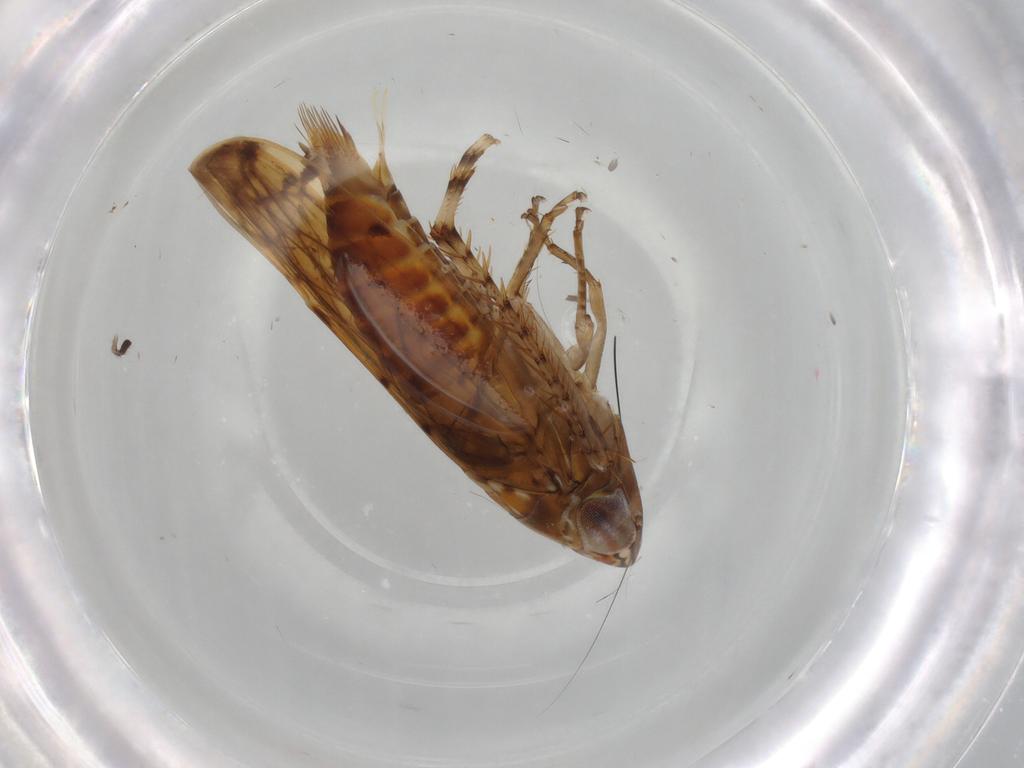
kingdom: Animalia
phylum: Arthropoda
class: Insecta
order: Hemiptera
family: Cicadellidae
